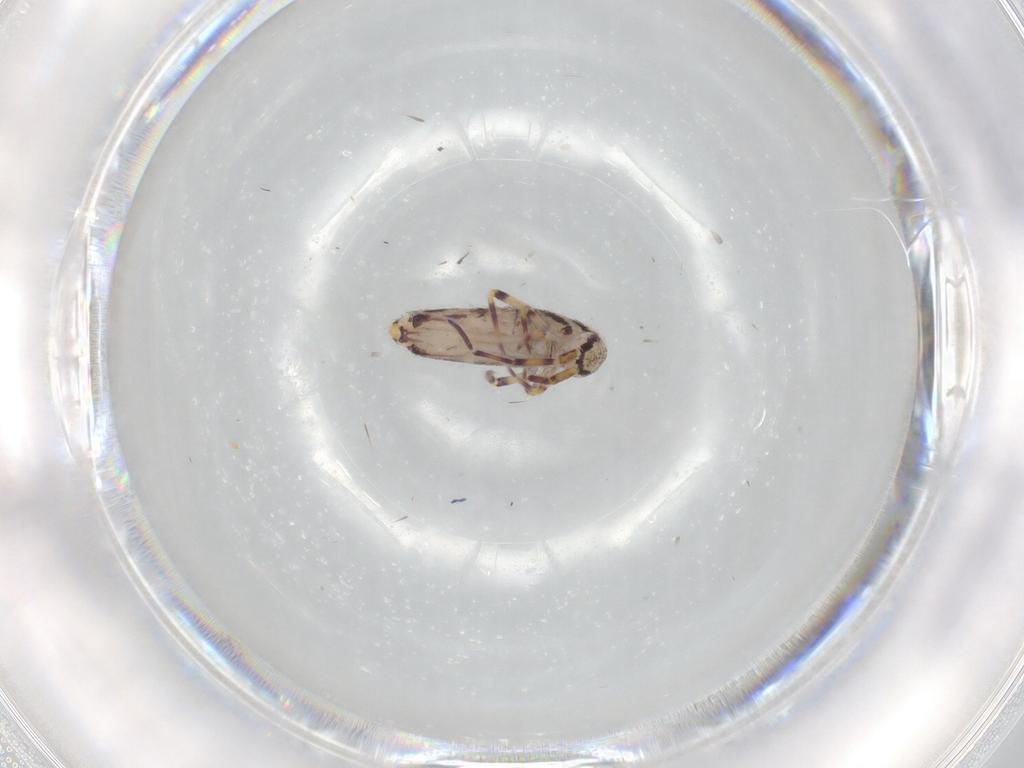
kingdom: Animalia
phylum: Arthropoda
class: Collembola
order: Entomobryomorpha
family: Entomobryidae
